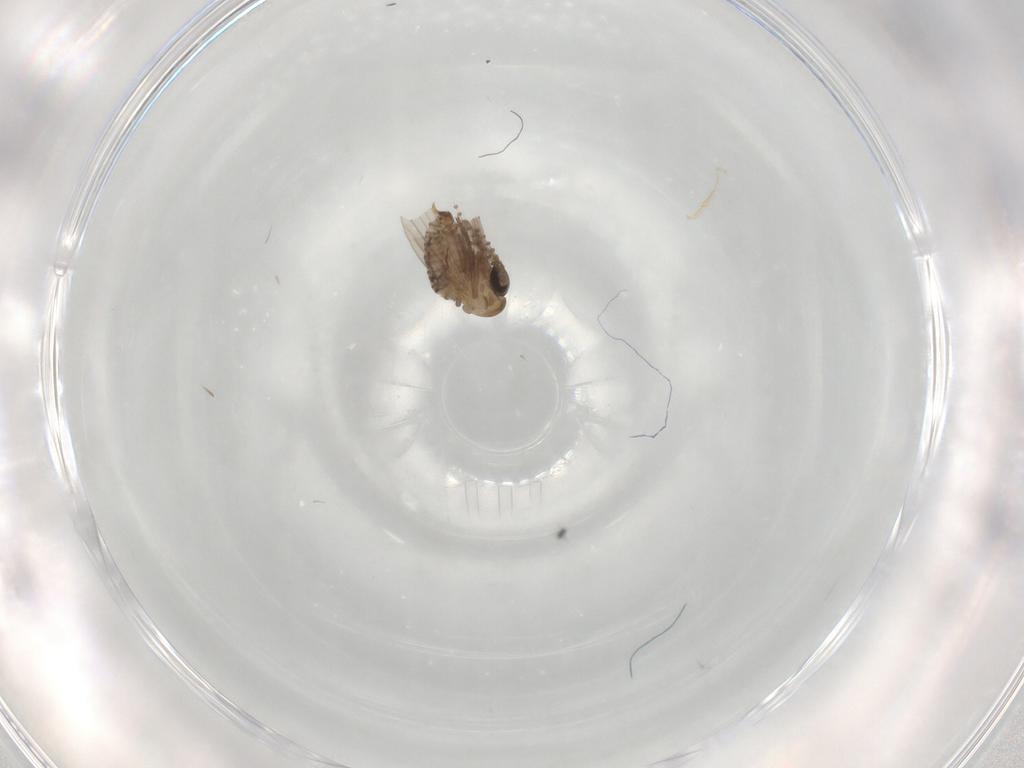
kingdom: Animalia
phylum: Arthropoda
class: Insecta
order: Diptera
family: Psychodidae
